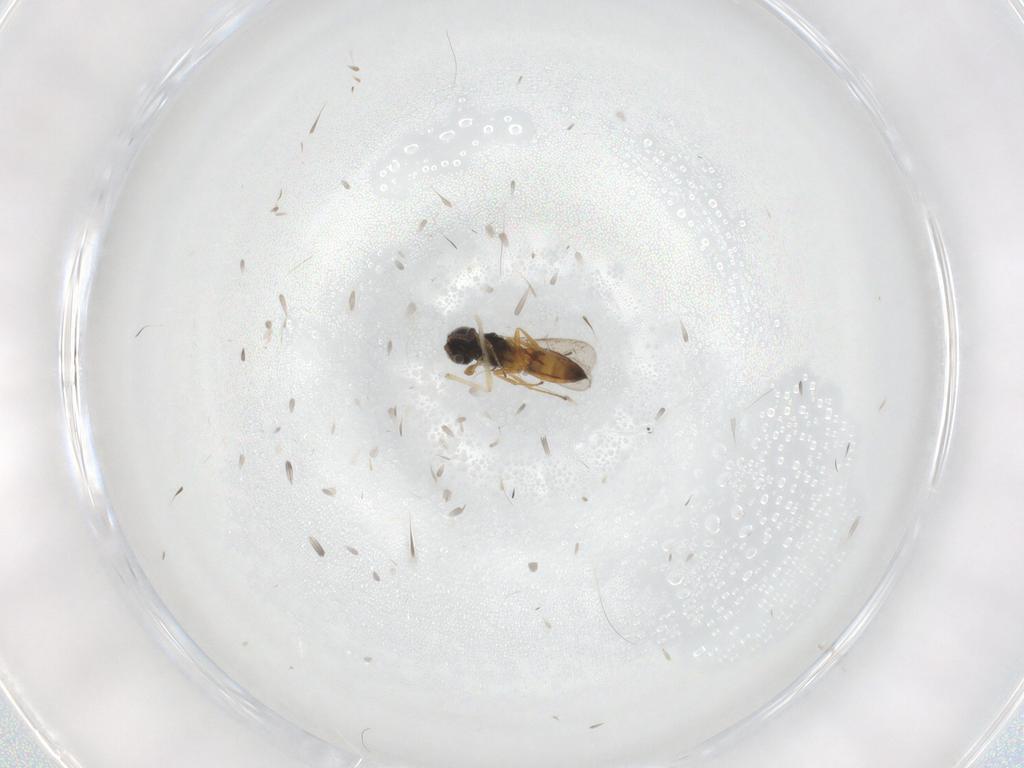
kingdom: Animalia
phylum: Arthropoda
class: Insecta
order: Hymenoptera
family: Scelionidae
